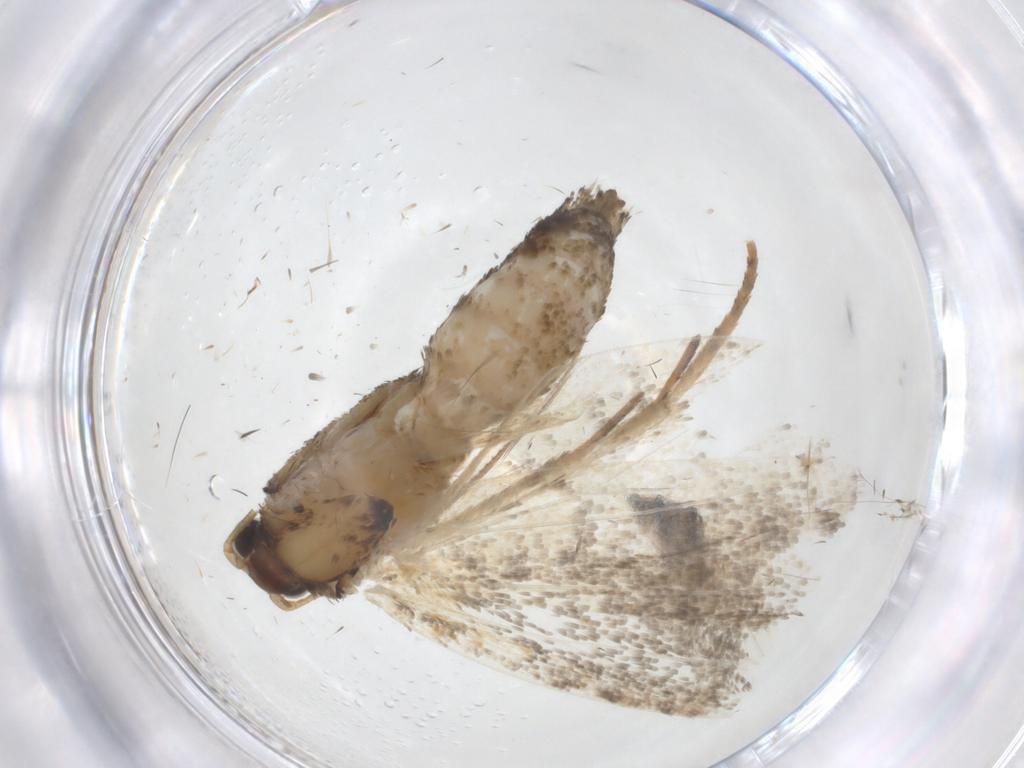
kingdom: Animalia
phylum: Arthropoda
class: Insecta
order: Lepidoptera
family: Tortricidae
